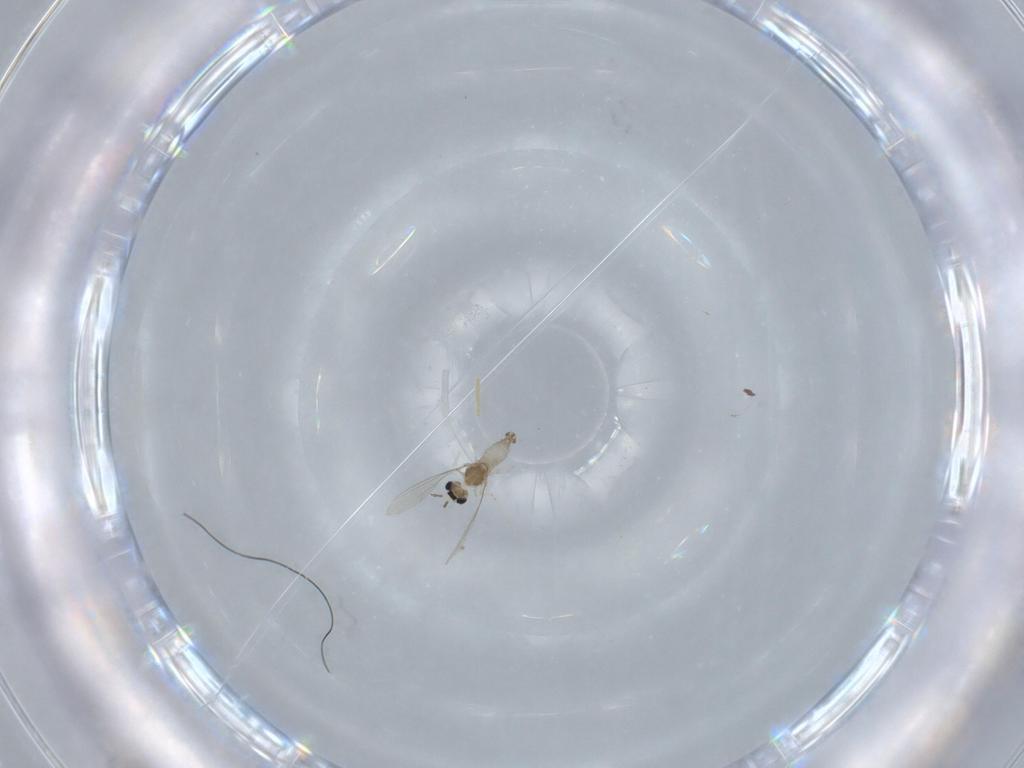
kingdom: Animalia
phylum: Arthropoda
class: Insecta
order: Diptera
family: Cecidomyiidae
